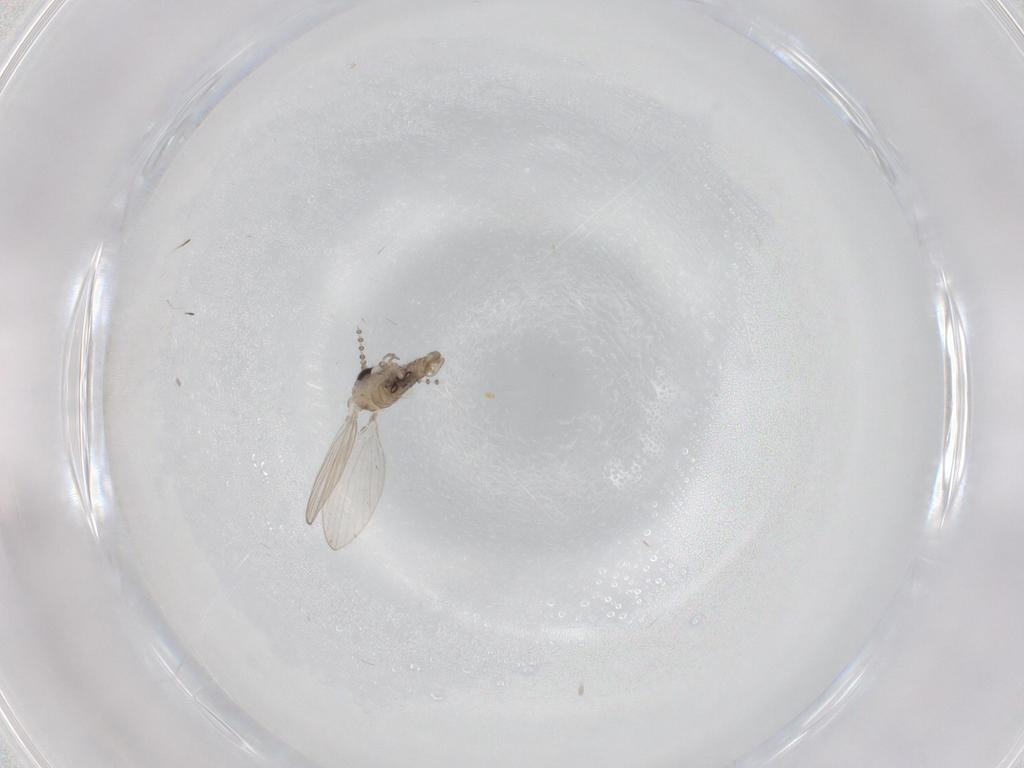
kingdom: Animalia
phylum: Arthropoda
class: Insecta
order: Diptera
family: Psychodidae
